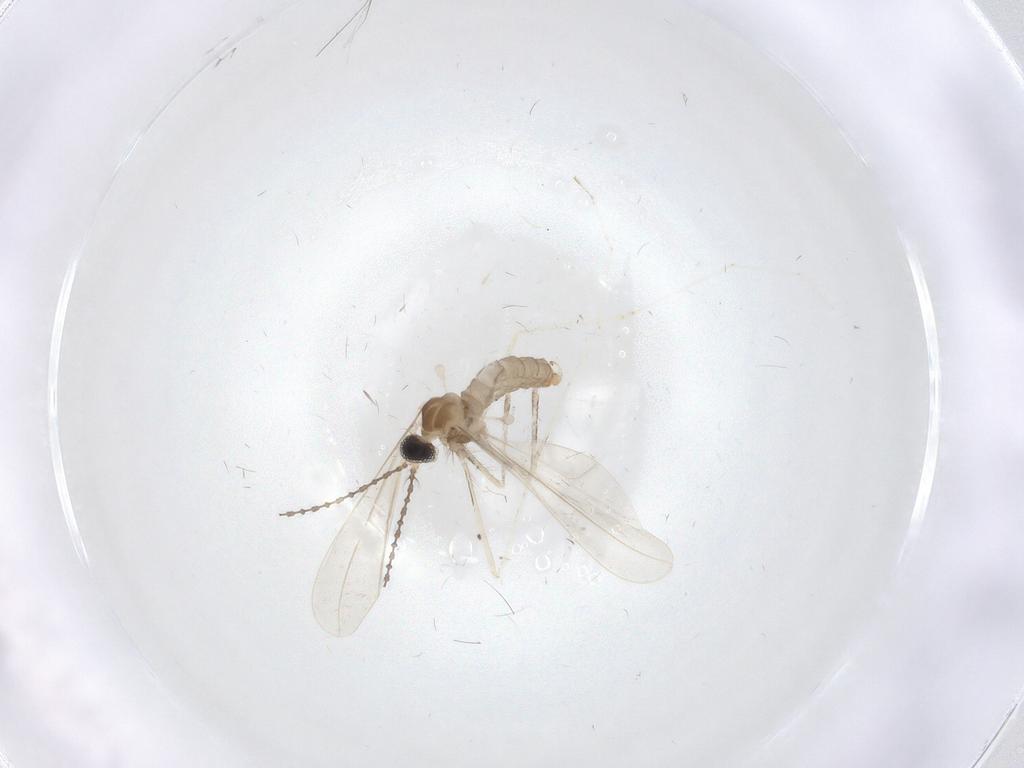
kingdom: Animalia
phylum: Arthropoda
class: Insecta
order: Diptera
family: Cecidomyiidae
